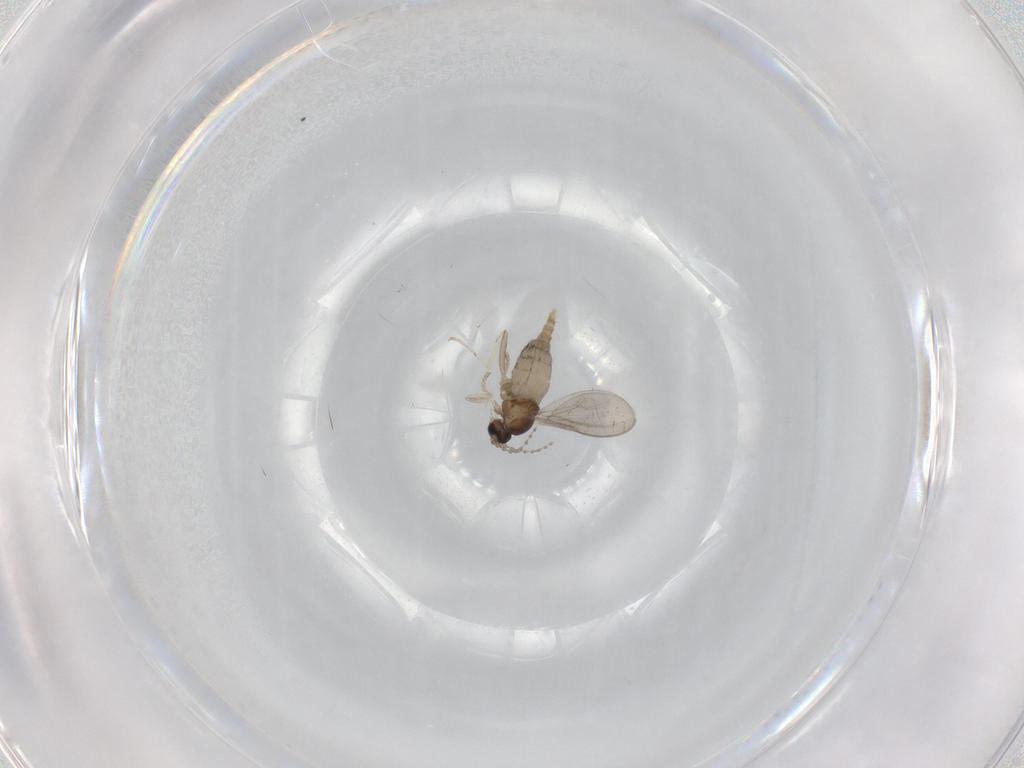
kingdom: Animalia
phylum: Arthropoda
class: Insecta
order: Diptera
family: Cecidomyiidae
